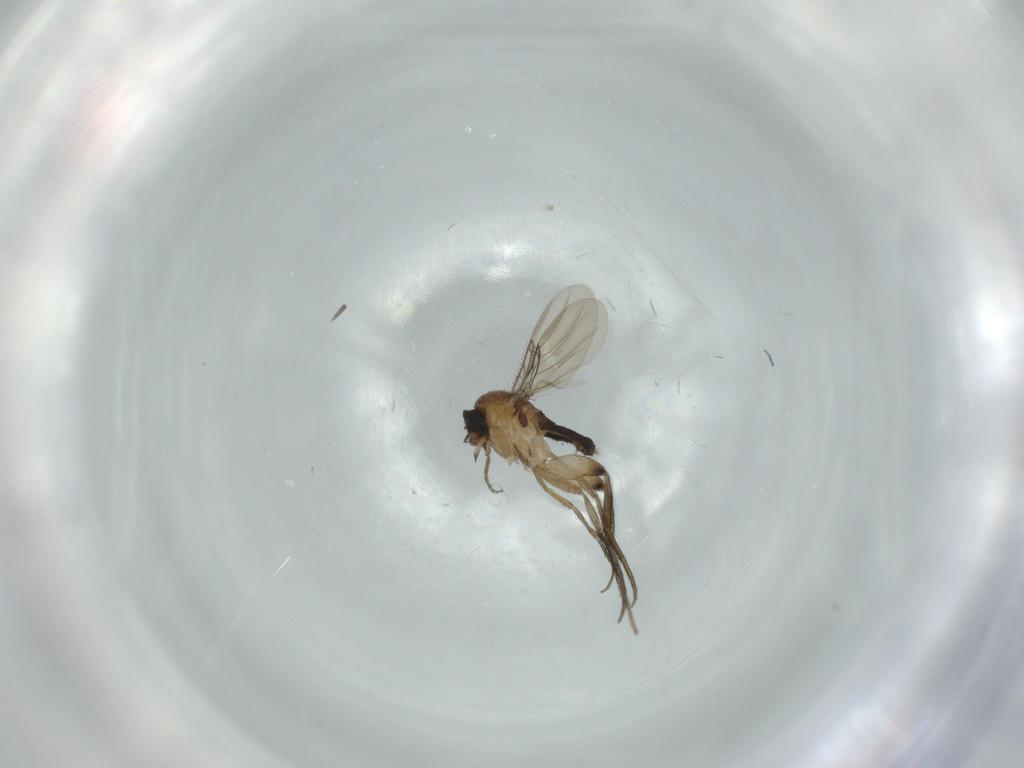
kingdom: Animalia
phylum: Arthropoda
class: Insecta
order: Diptera
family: Phoridae
